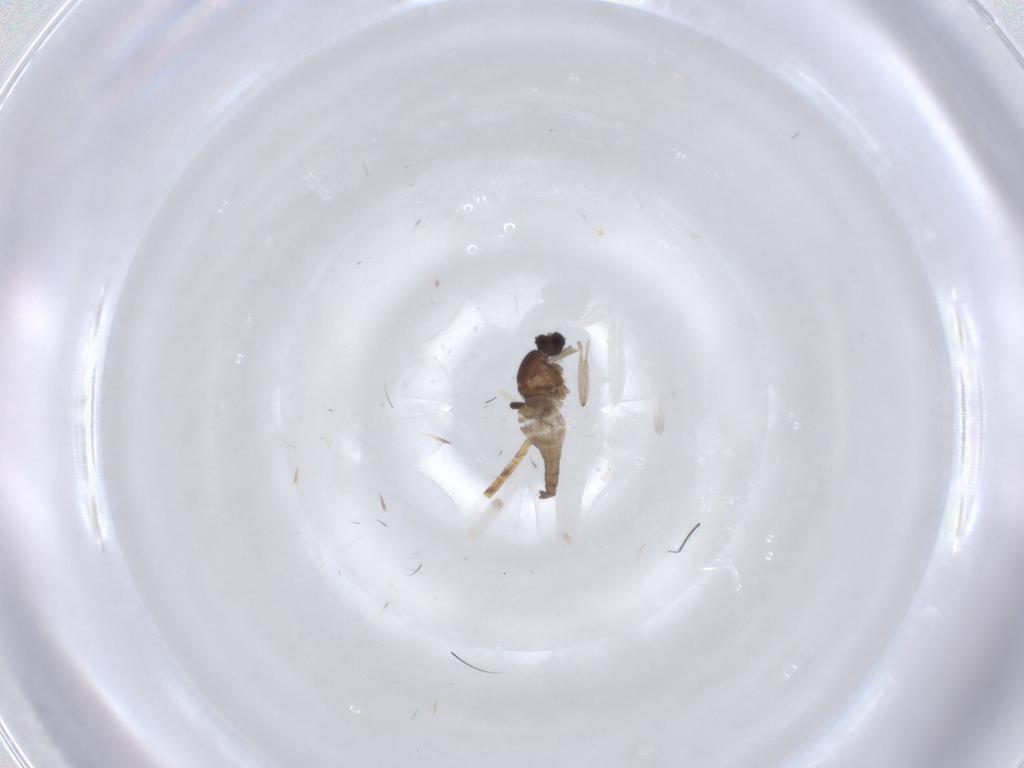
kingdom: Animalia
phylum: Arthropoda
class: Insecta
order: Diptera
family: Cecidomyiidae
